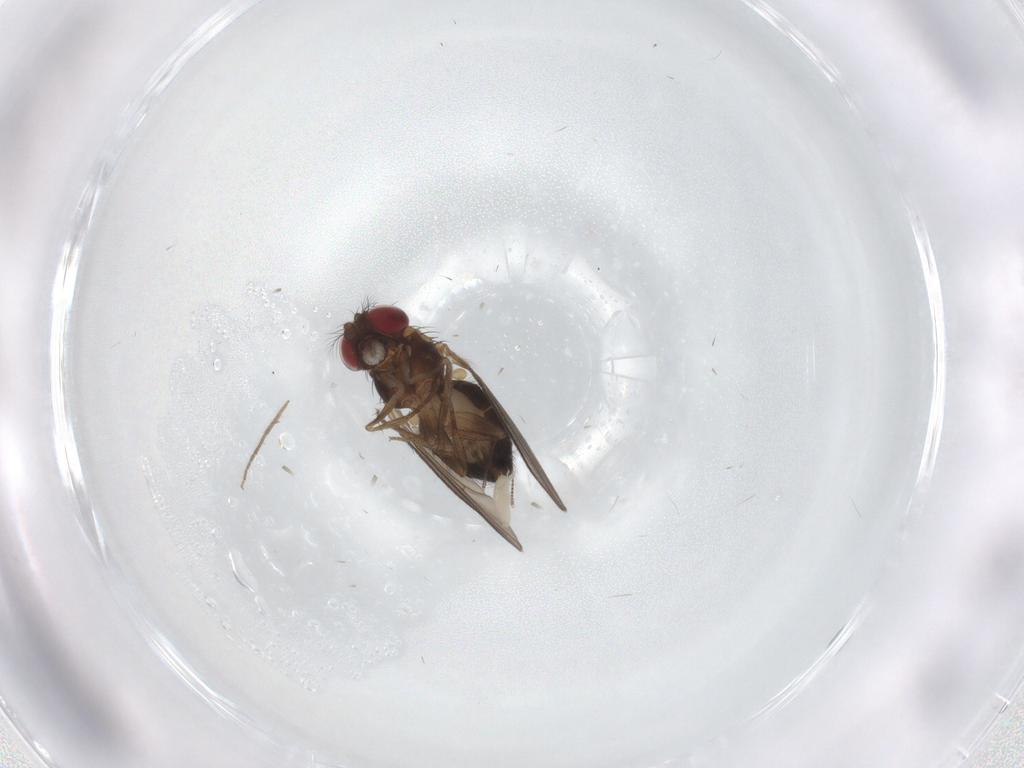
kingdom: Animalia
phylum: Arthropoda
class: Insecta
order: Diptera
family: Drosophilidae
